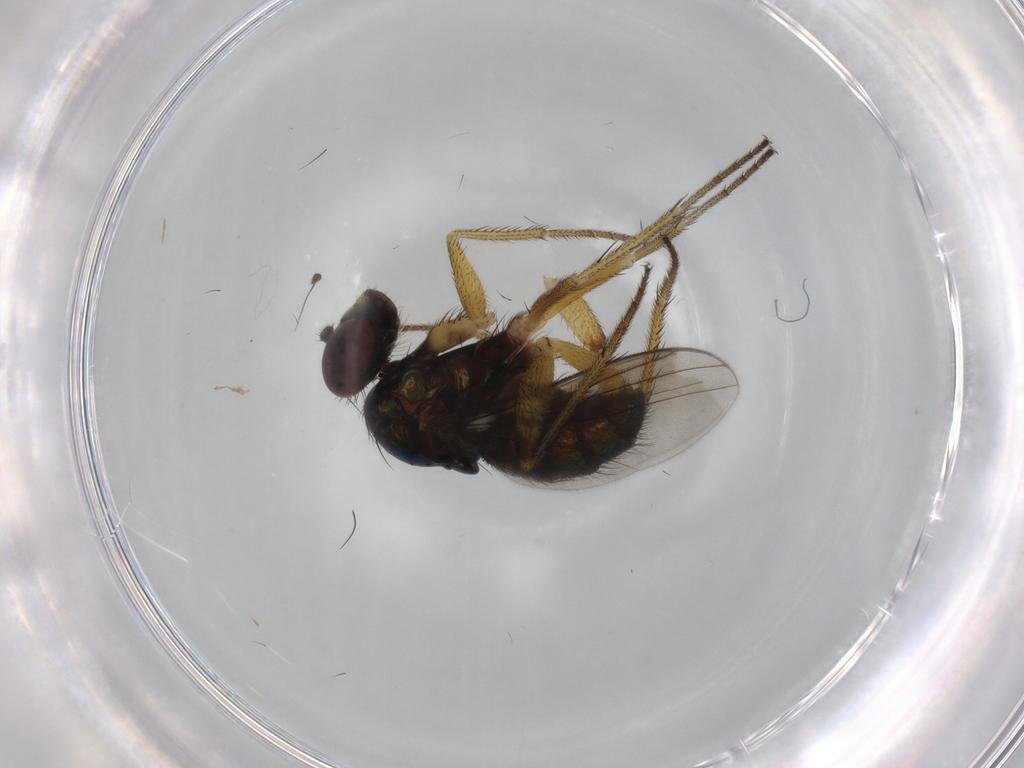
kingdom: Animalia
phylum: Arthropoda
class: Insecta
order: Diptera
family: Dolichopodidae
